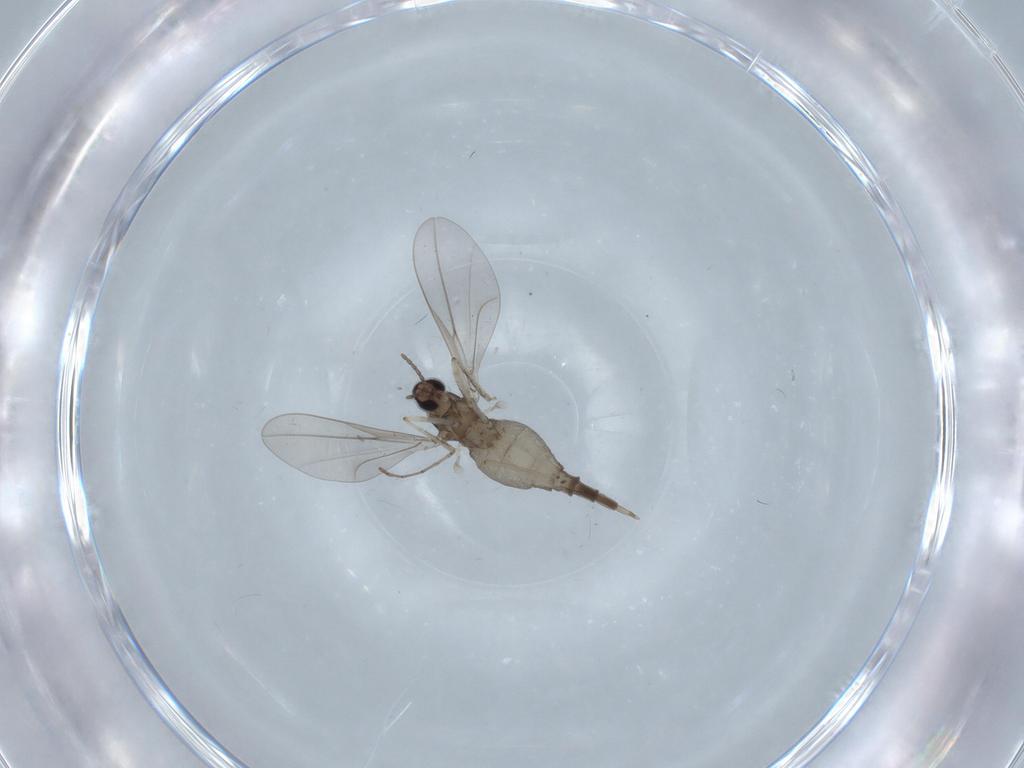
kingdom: Animalia
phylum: Arthropoda
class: Insecta
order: Diptera
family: Cecidomyiidae
